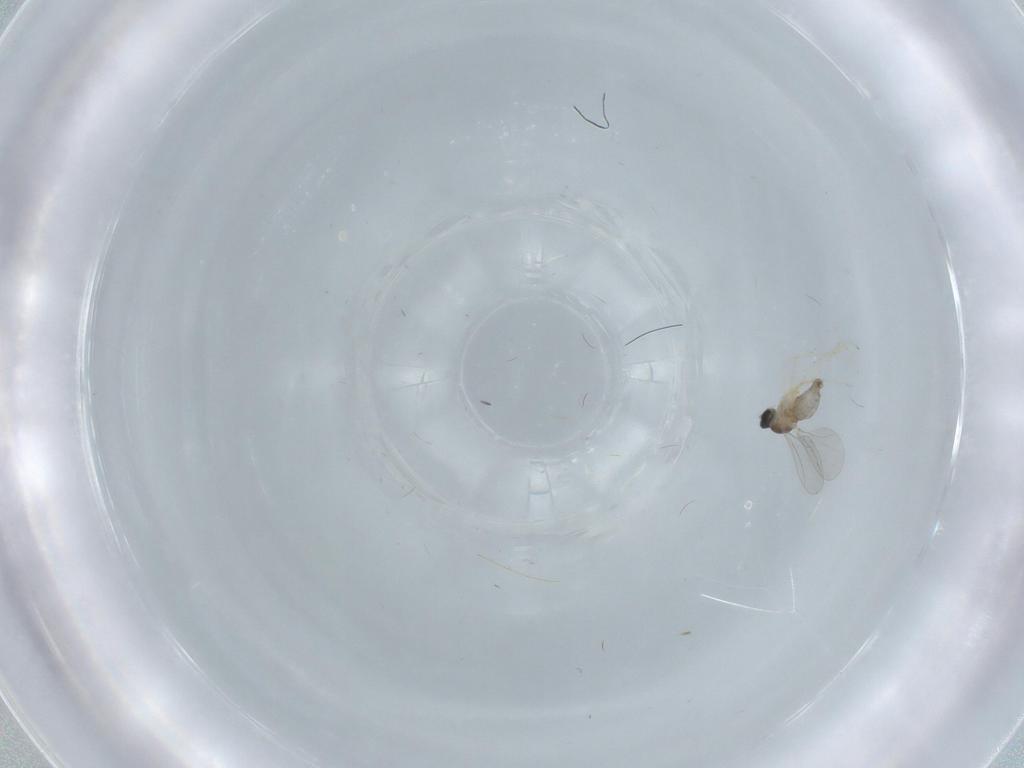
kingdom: Animalia
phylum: Arthropoda
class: Insecta
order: Diptera
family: Cecidomyiidae
